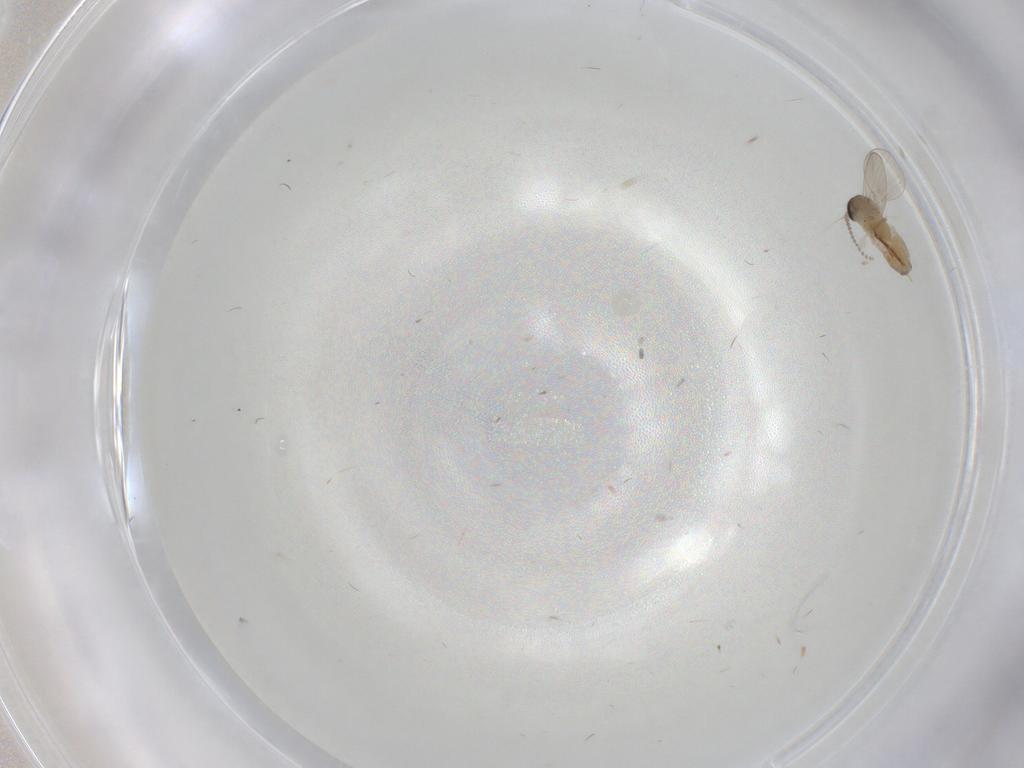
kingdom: Animalia
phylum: Arthropoda
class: Insecta
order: Diptera
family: Psychodidae
